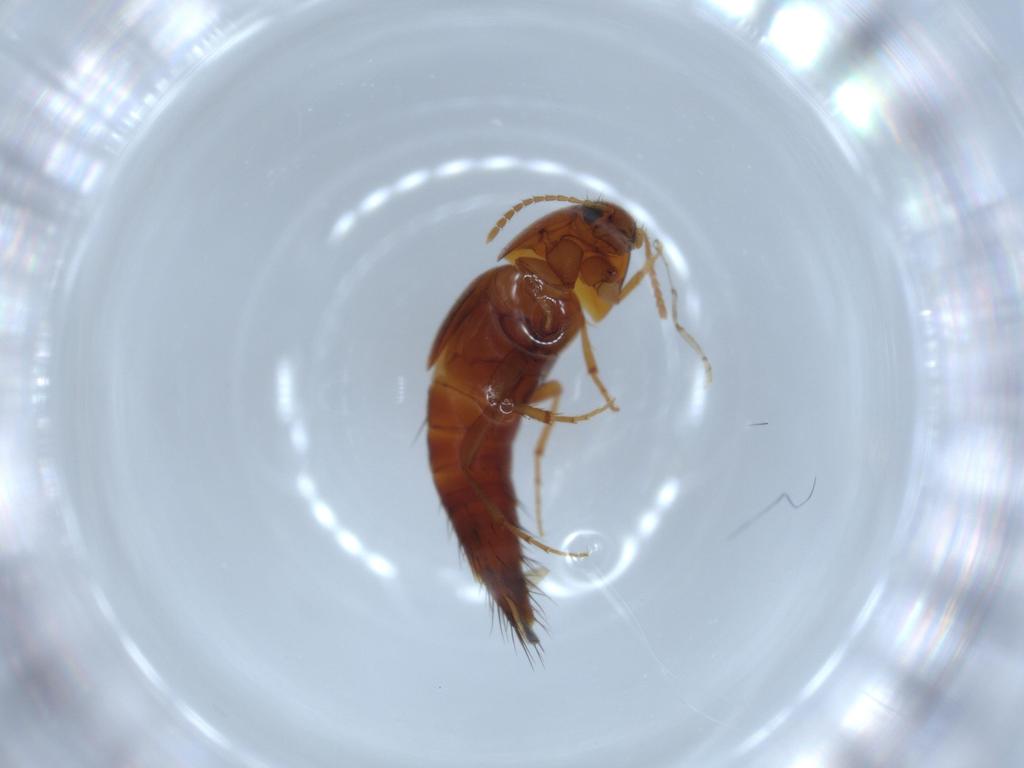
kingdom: Animalia
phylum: Arthropoda
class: Insecta
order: Coleoptera
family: Staphylinidae
